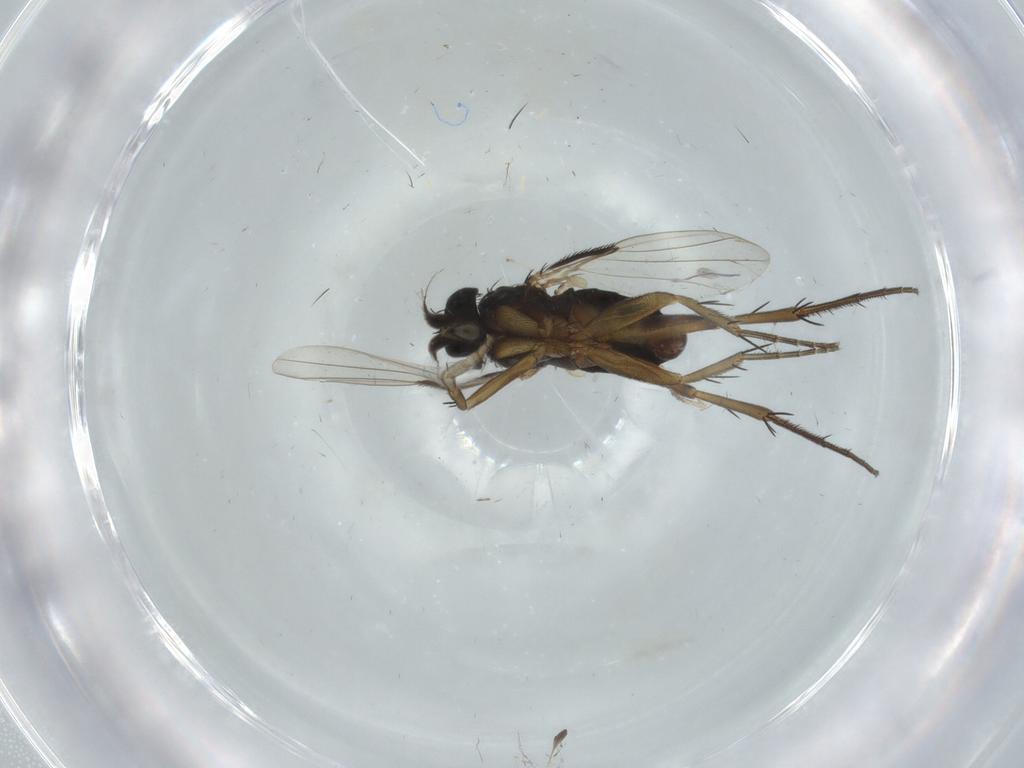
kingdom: Animalia
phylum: Arthropoda
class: Insecta
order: Diptera
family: Phoridae
